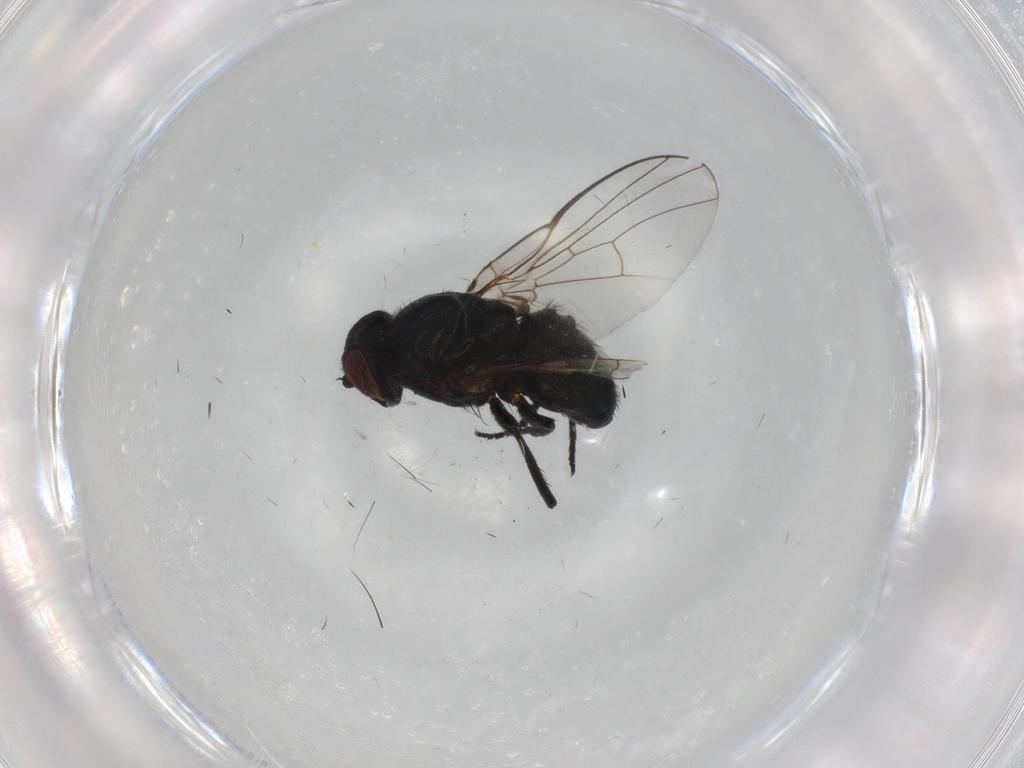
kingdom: Animalia
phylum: Arthropoda
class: Insecta
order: Diptera
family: Agromyzidae
